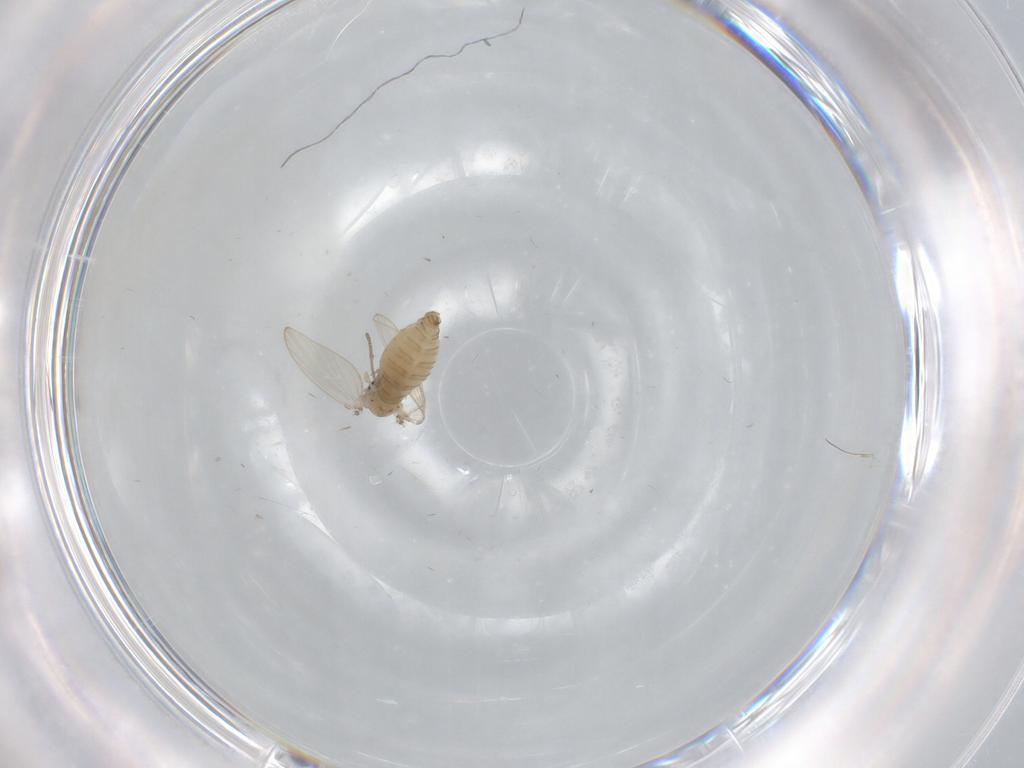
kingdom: Animalia
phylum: Arthropoda
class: Insecta
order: Diptera
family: Psychodidae
